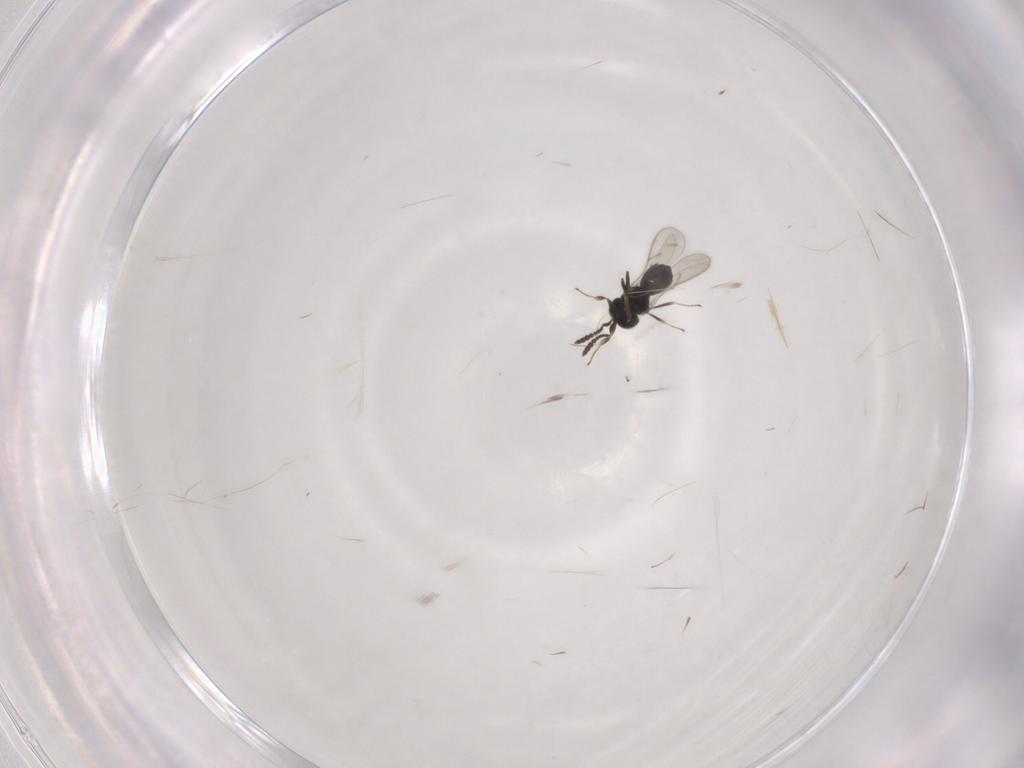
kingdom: Animalia
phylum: Arthropoda
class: Insecta
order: Hymenoptera
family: Scelionidae
